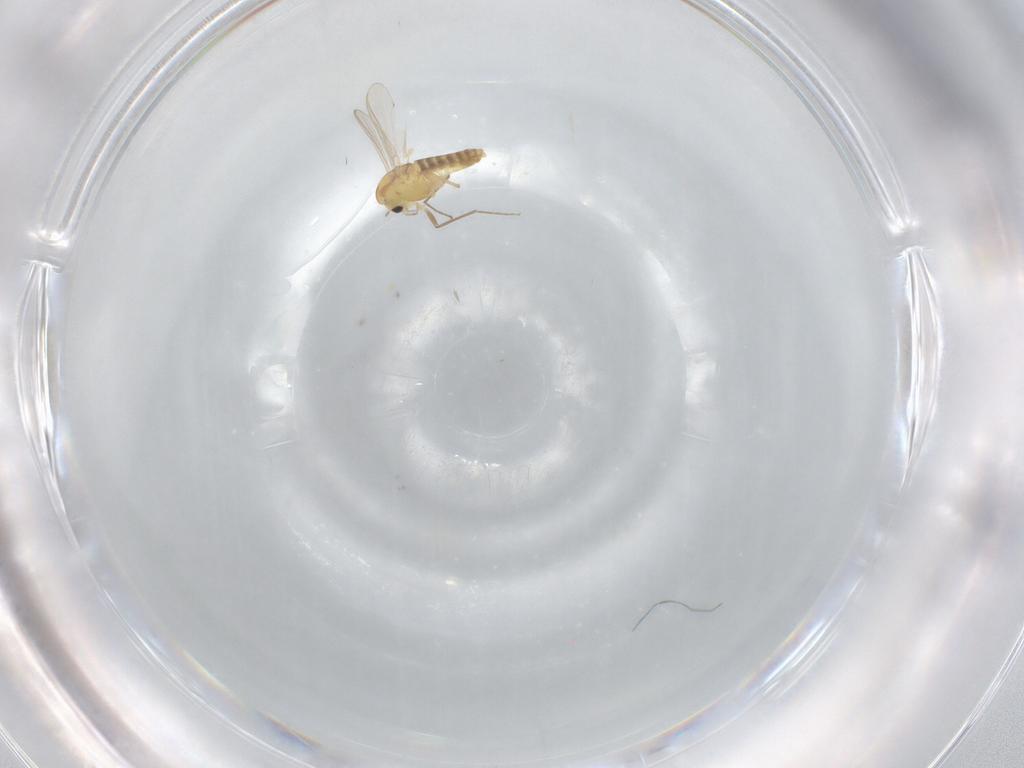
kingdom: Animalia
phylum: Arthropoda
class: Insecta
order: Diptera
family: Chironomidae
